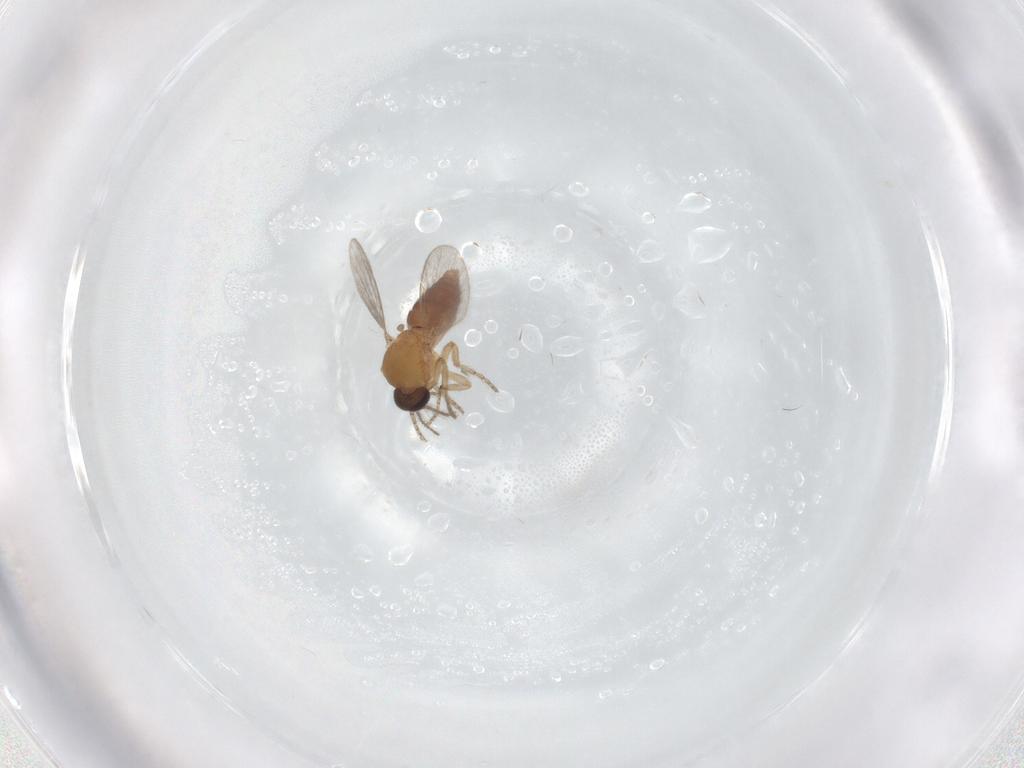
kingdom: Animalia
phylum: Arthropoda
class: Insecta
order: Diptera
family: Ceratopogonidae
